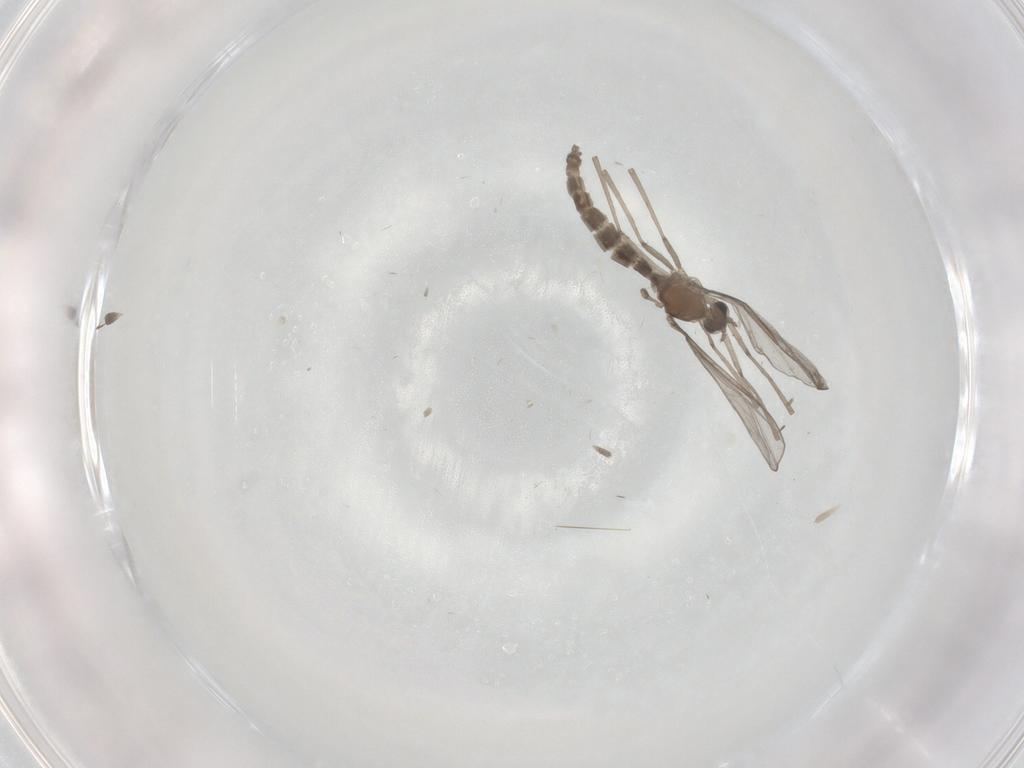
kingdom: Animalia
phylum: Arthropoda
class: Insecta
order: Diptera
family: Cecidomyiidae
